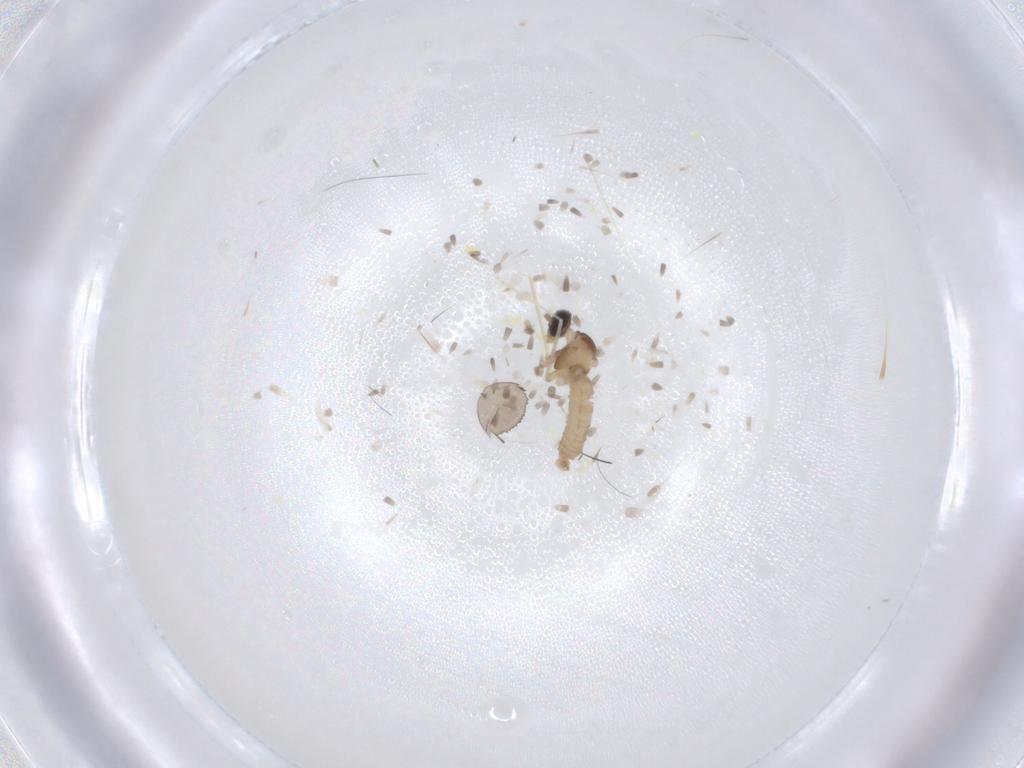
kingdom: Animalia
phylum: Arthropoda
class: Insecta
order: Diptera
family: Cecidomyiidae
